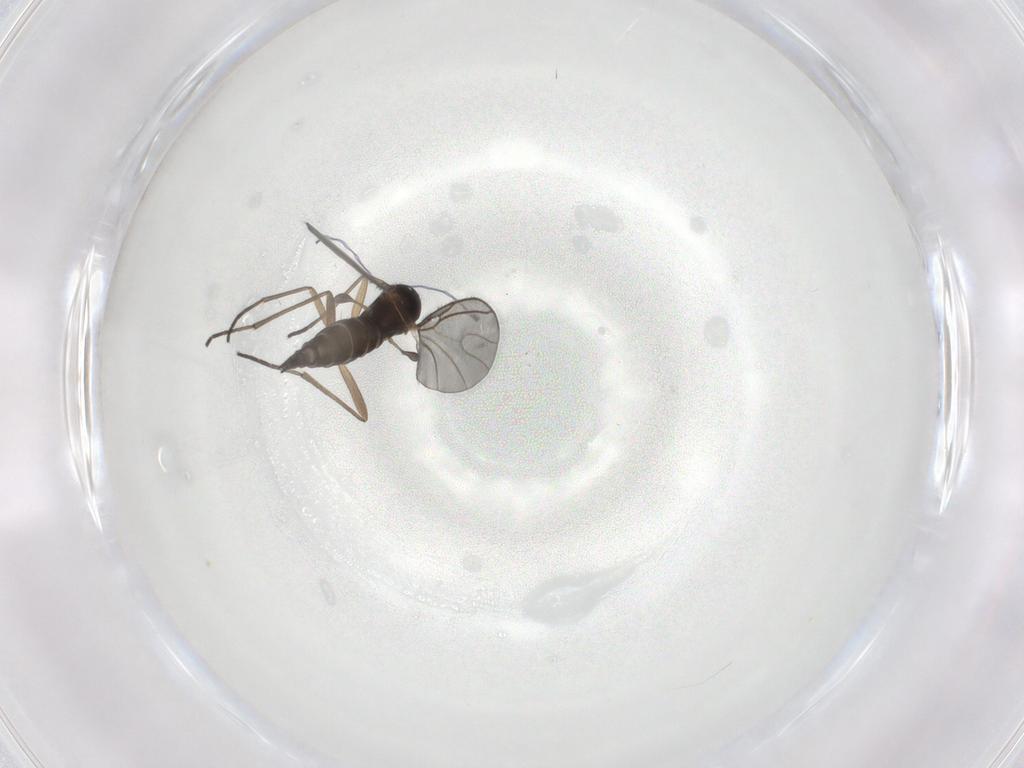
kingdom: Animalia
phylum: Arthropoda
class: Insecta
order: Diptera
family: Sciaridae
